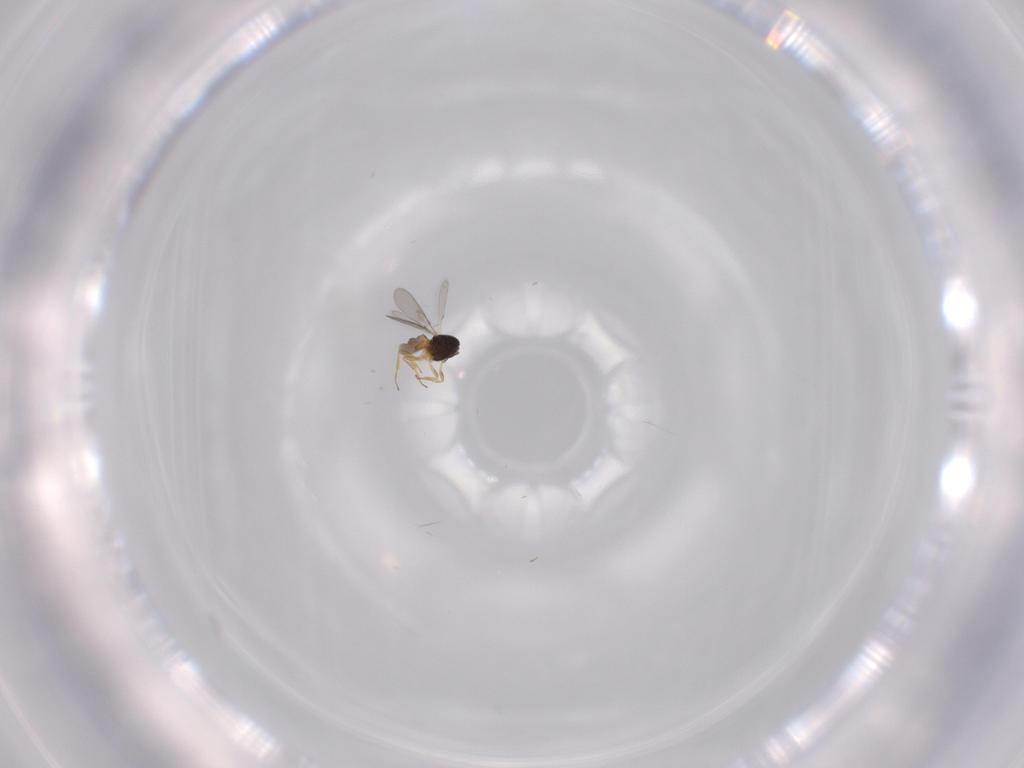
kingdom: Animalia
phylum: Arthropoda
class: Insecta
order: Hymenoptera
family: Scelionidae
